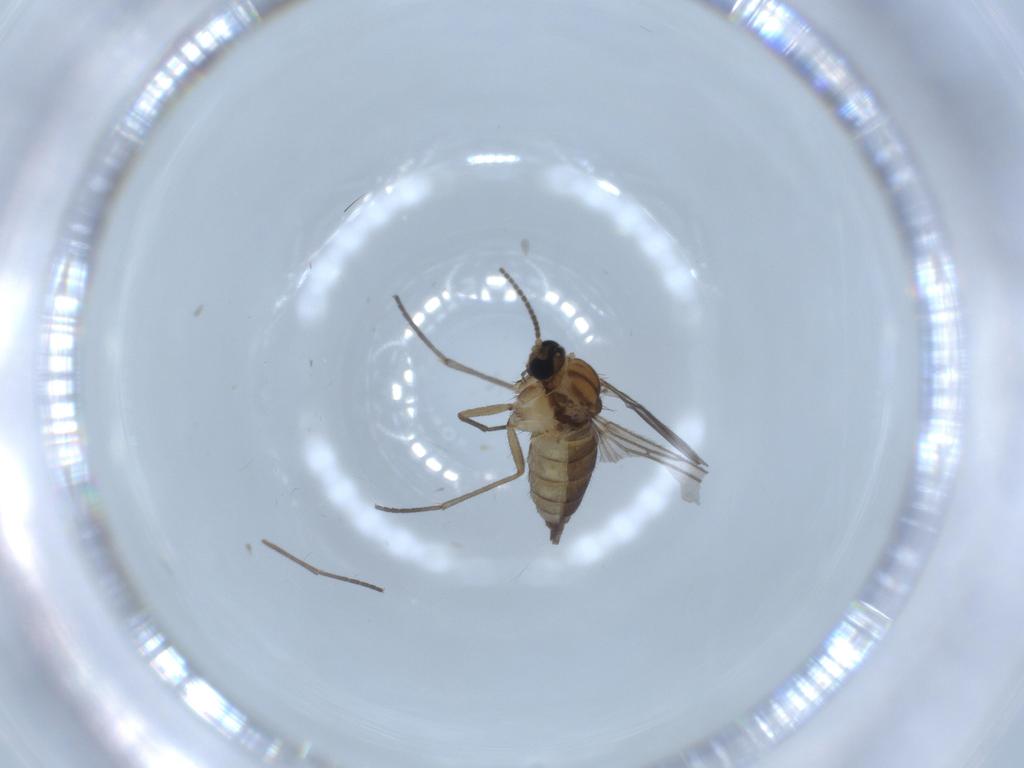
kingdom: Animalia
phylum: Arthropoda
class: Insecta
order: Diptera
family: Sciaridae
